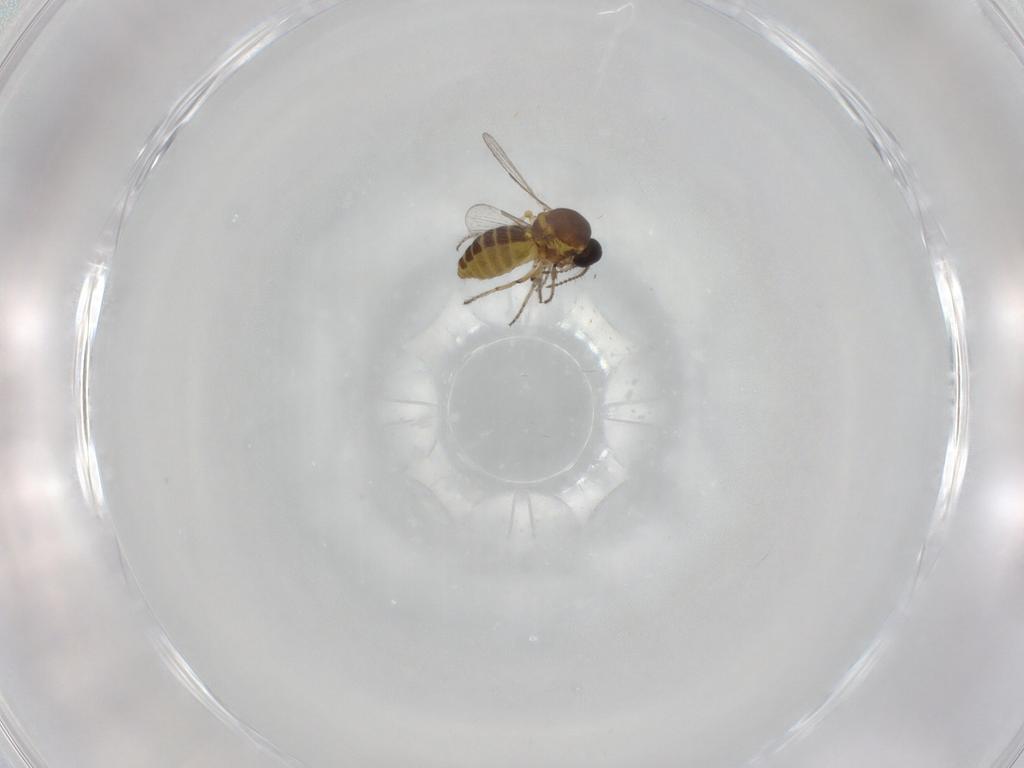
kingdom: Animalia
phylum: Arthropoda
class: Insecta
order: Diptera
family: Ceratopogonidae
